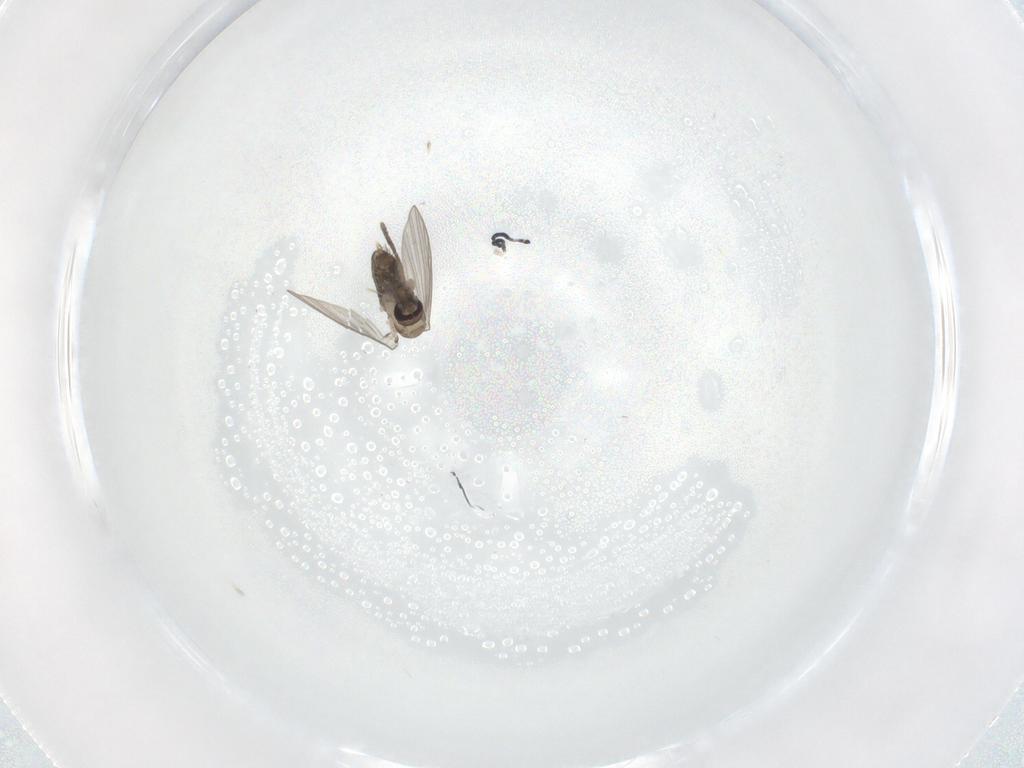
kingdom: Animalia
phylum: Arthropoda
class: Insecta
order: Diptera
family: Psychodidae
